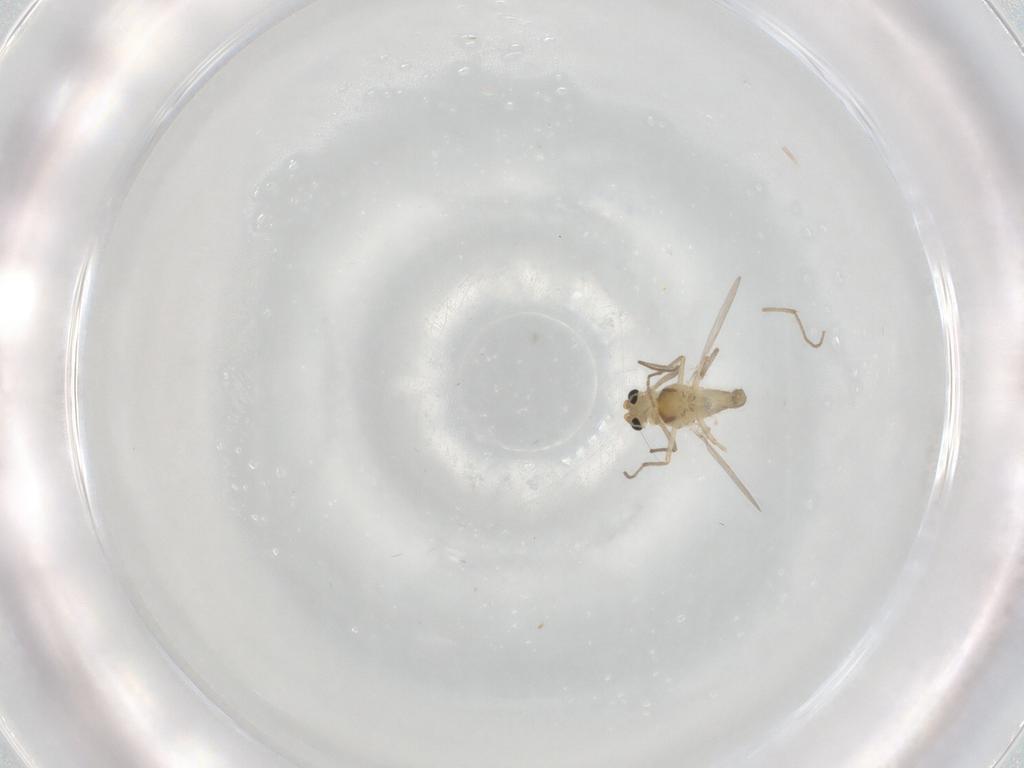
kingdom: Animalia
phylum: Arthropoda
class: Insecta
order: Diptera
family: Chironomidae
